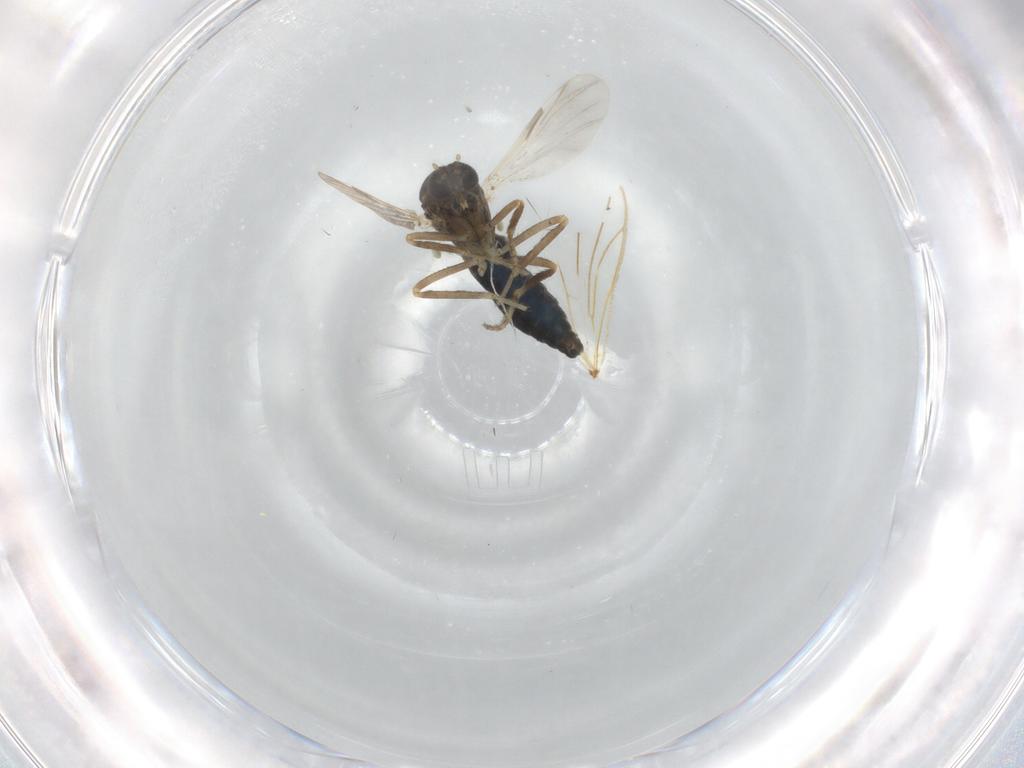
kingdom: Animalia
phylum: Arthropoda
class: Insecta
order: Diptera
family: Ceratopogonidae
